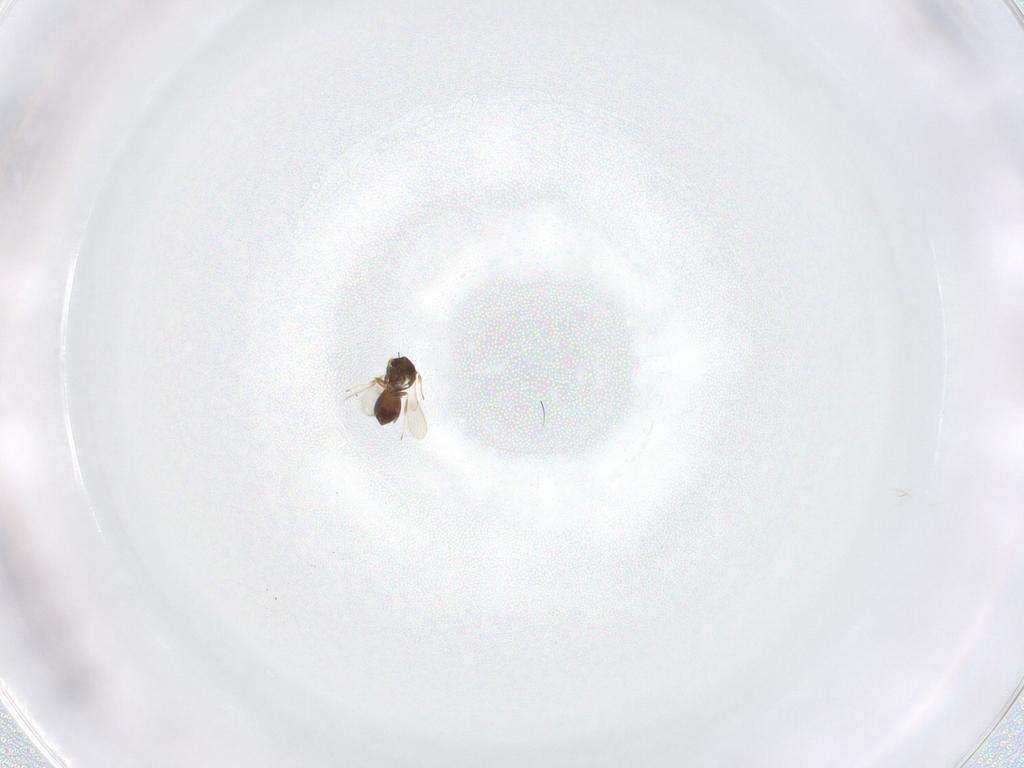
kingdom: Animalia
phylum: Arthropoda
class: Insecta
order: Hymenoptera
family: Scelionidae
